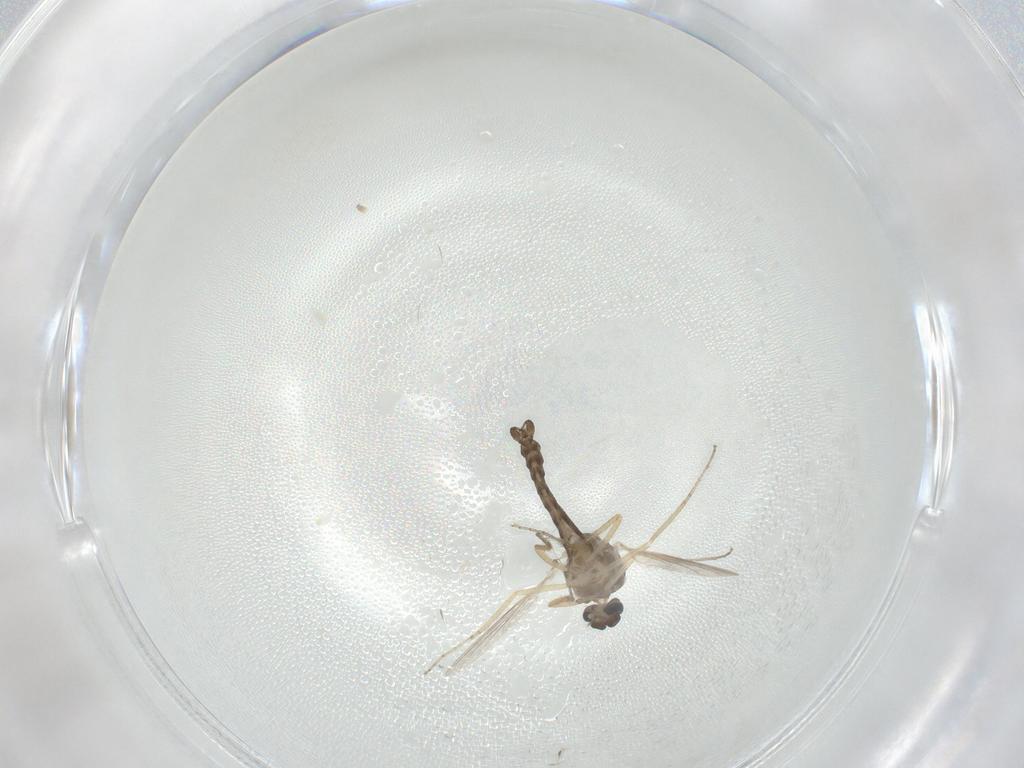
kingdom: Animalia
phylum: Arthropoda
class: Insecta
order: Diptera
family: Ceratopogonidae
